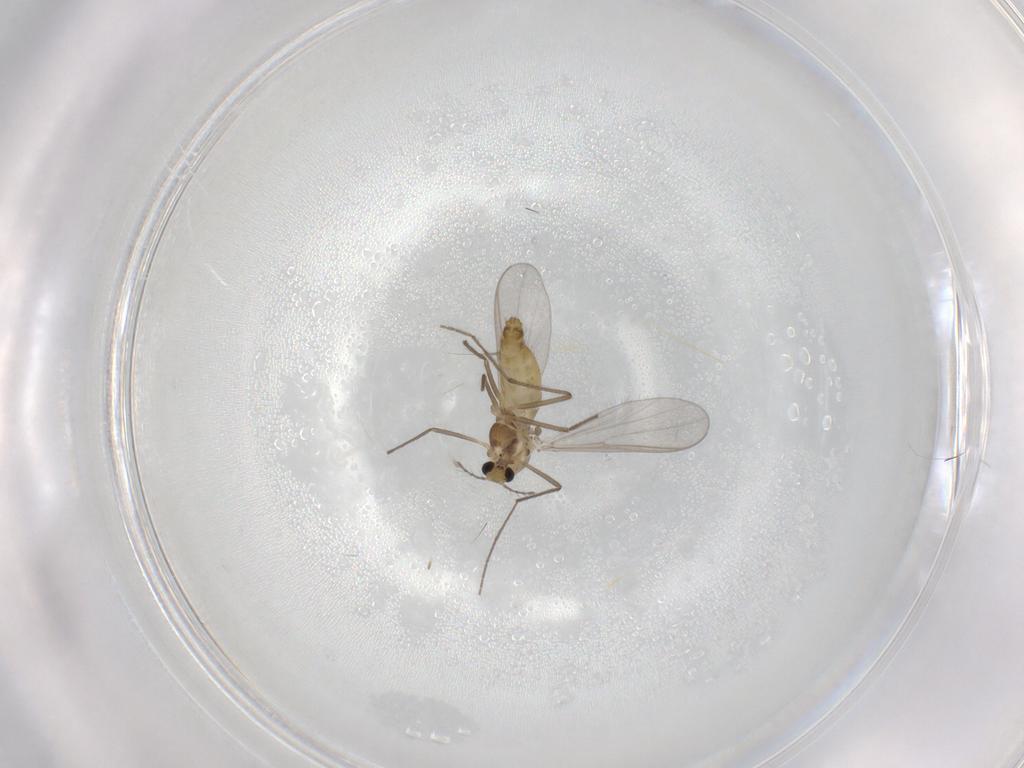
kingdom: Animalia
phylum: Arthropoda
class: Insecta
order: Diptera
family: Chironomidae
